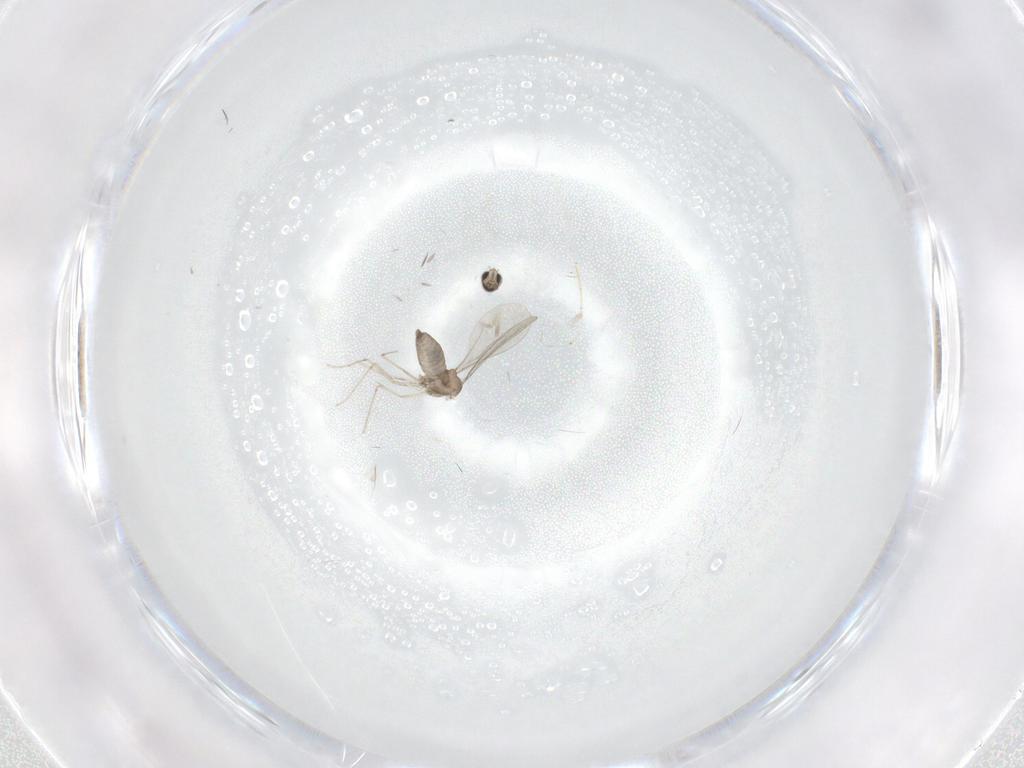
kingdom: Animalia
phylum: Arthropoda
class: Insecta
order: Diptera
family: Cecidomyiidae
